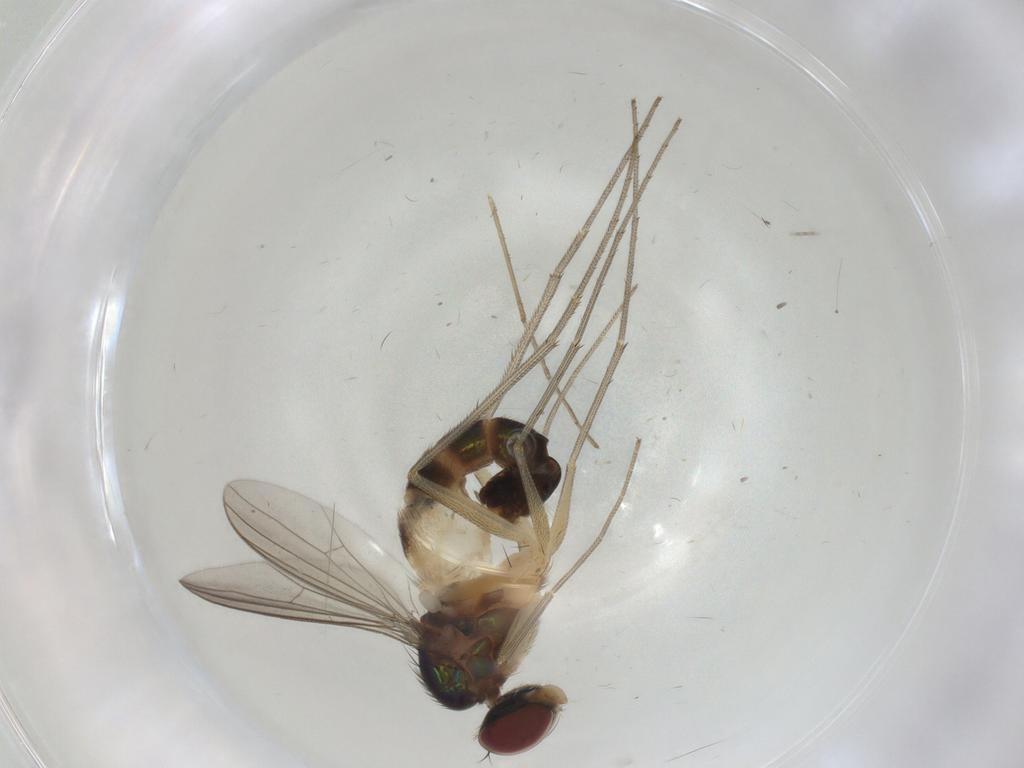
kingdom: Animalia
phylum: Arthropoda
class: Insecta
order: Diptera
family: Dolichopodidae
